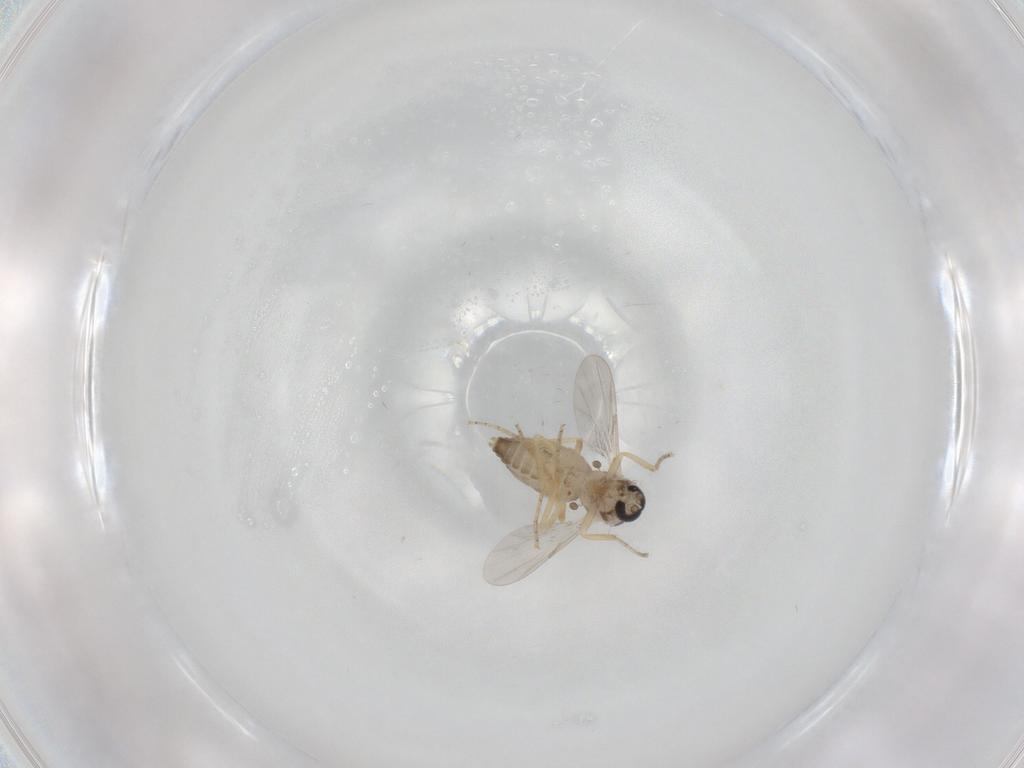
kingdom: Animalia
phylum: Arthropoda
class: Insecta
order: Diptera
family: Ceratopogonidae
